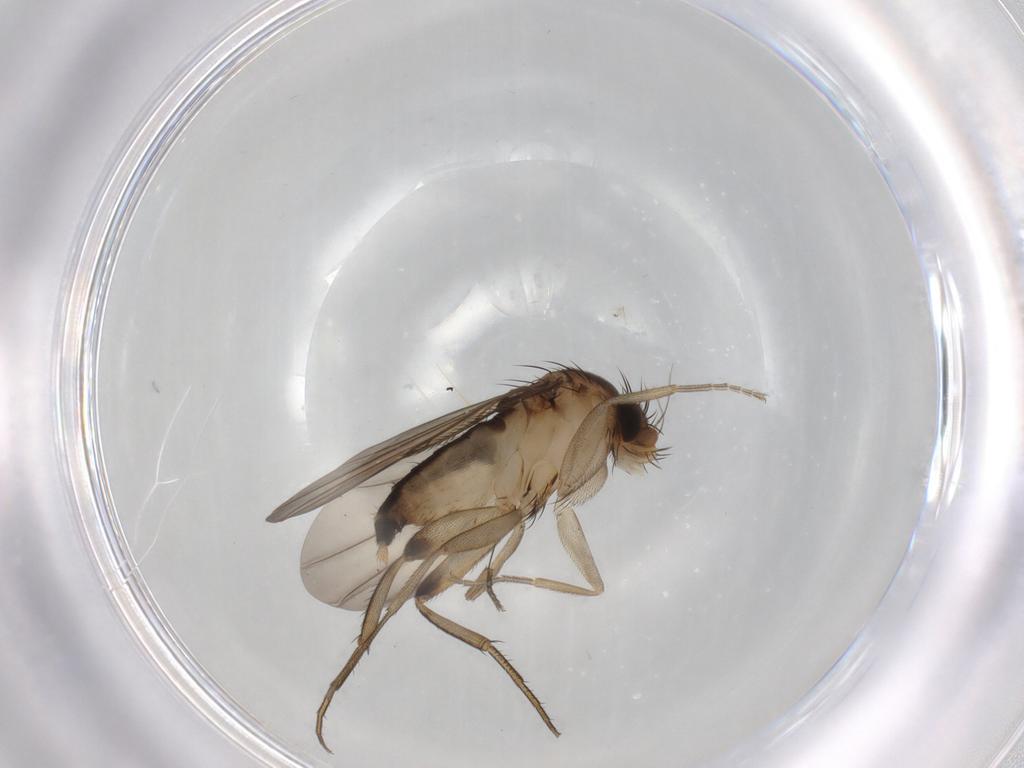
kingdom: Animalia
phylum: Arthropoda
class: Insecta
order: Diptera
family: Phoridae
